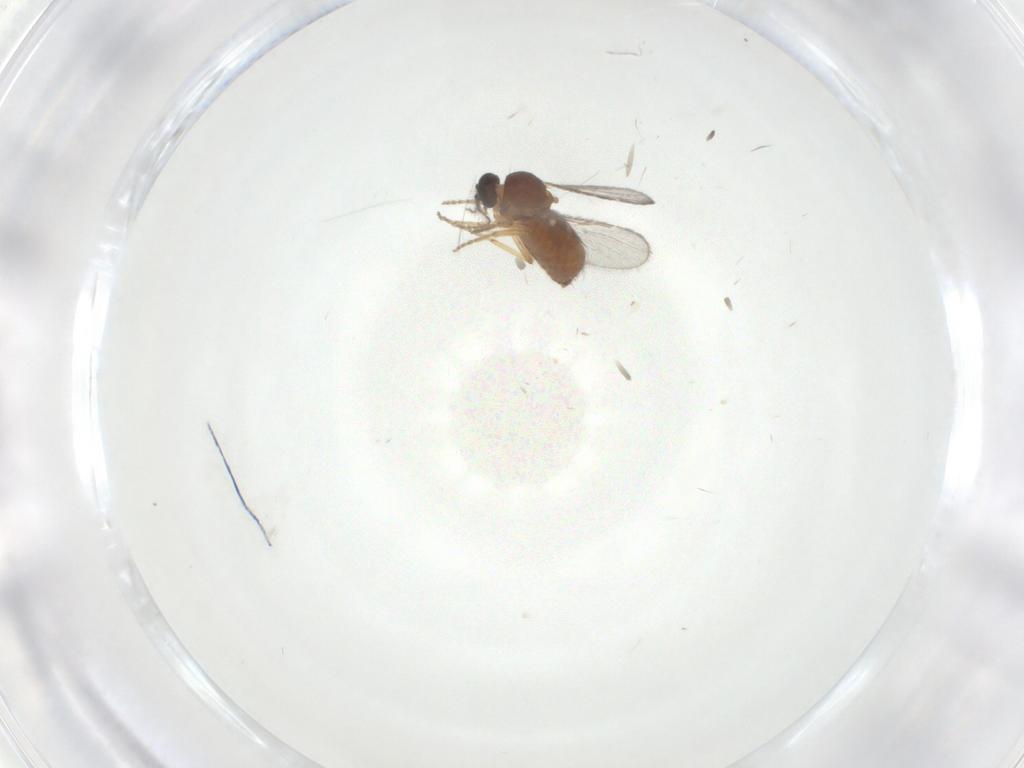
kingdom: Animalia
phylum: Arthropoda
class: Insecta
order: Diptera
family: Ceratopogonidae
